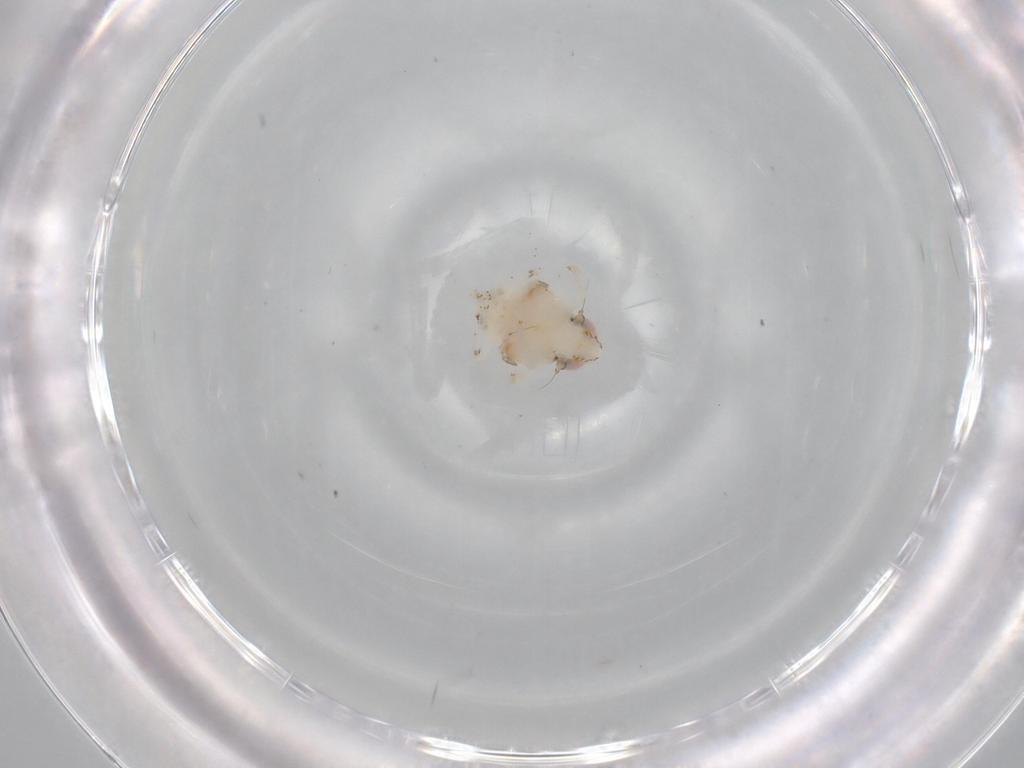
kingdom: Animalia
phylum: Arthropoda
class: Insecta
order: Hemiptera
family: Nogodinidae
